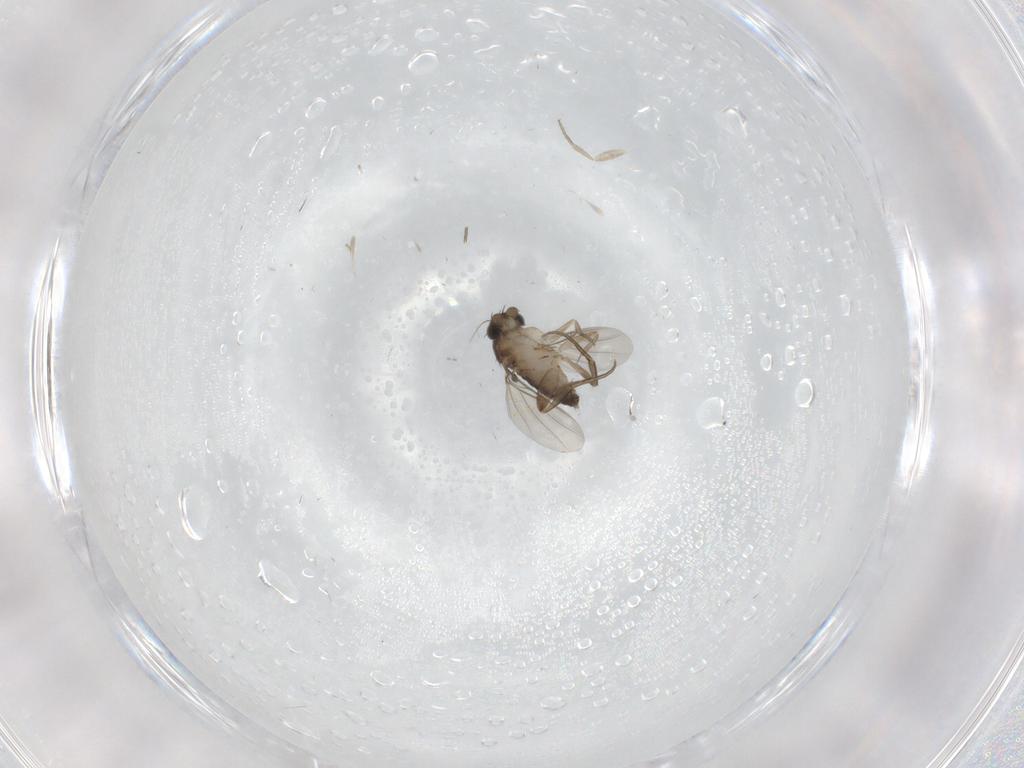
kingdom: Animalia
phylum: Arthropoda
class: Insecta
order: Diptera
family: Phoridae
